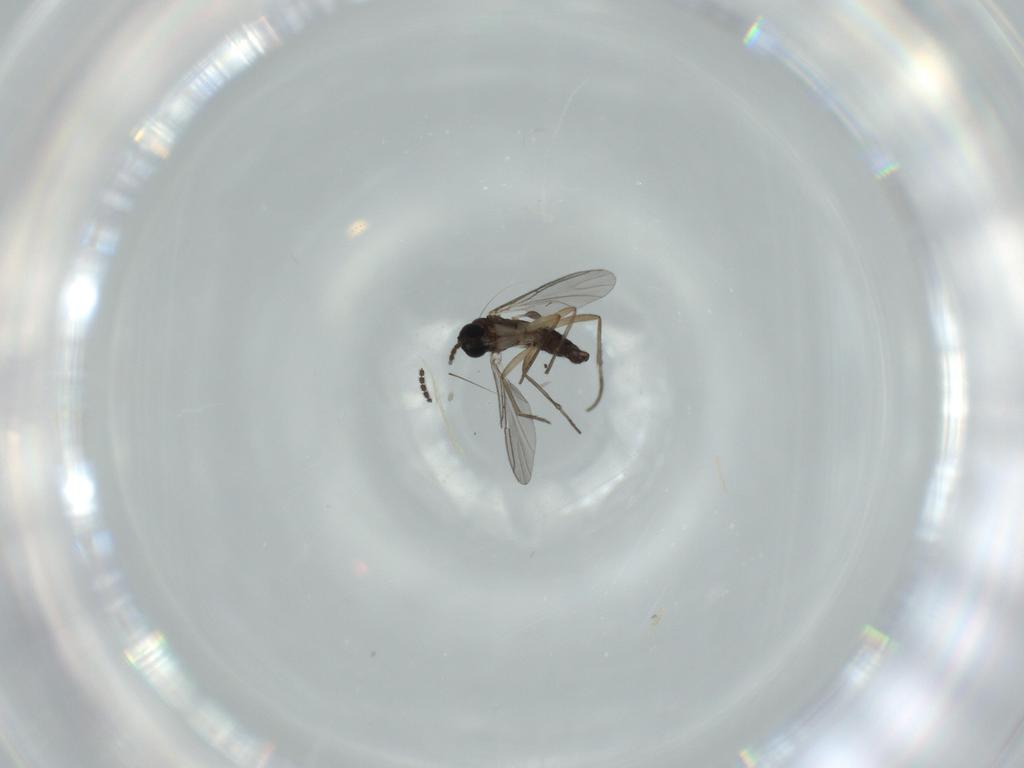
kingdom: Animalia
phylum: Arthropoda
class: Insecta
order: Diptera
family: Sciaridae
